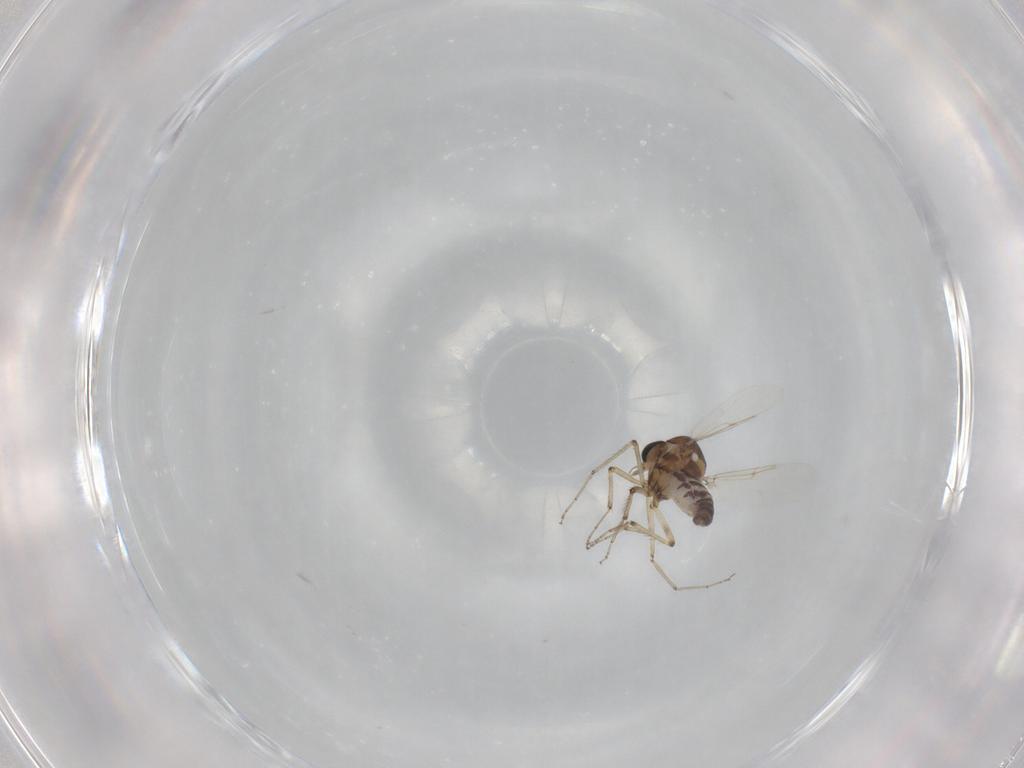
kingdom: Animalia
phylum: Arthropoda
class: Insecta
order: Diptera
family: Ceratopogonidae
